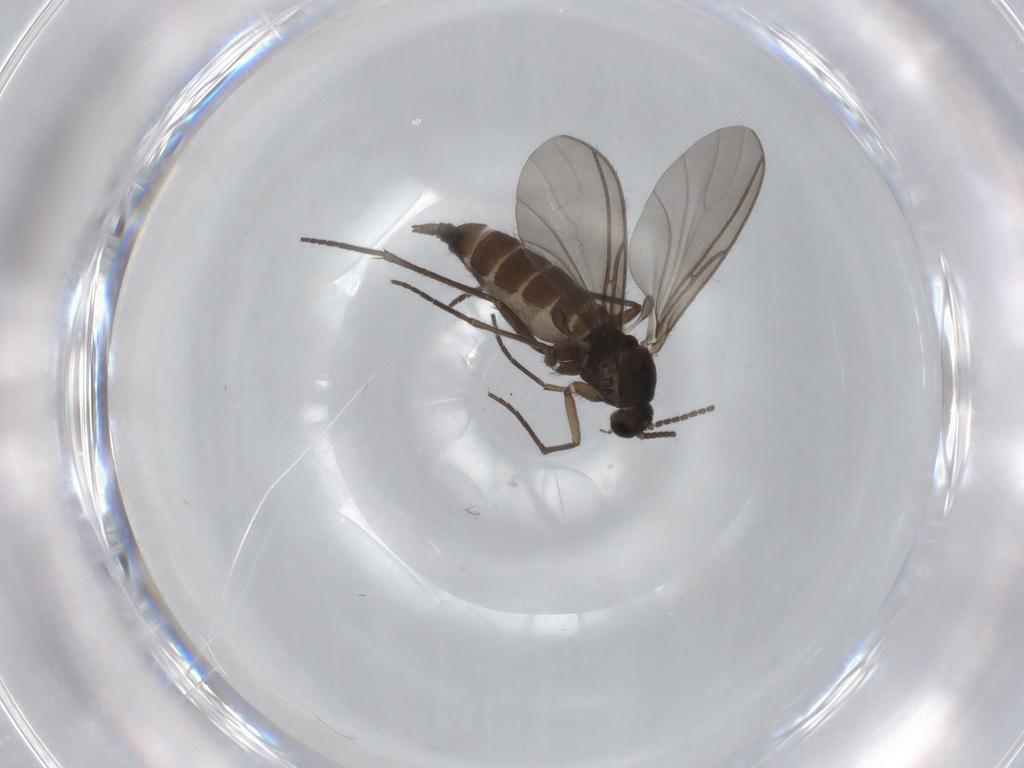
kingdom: Animalia
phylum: Arthropoda
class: Insecta
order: Diptera
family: Sciaridae
